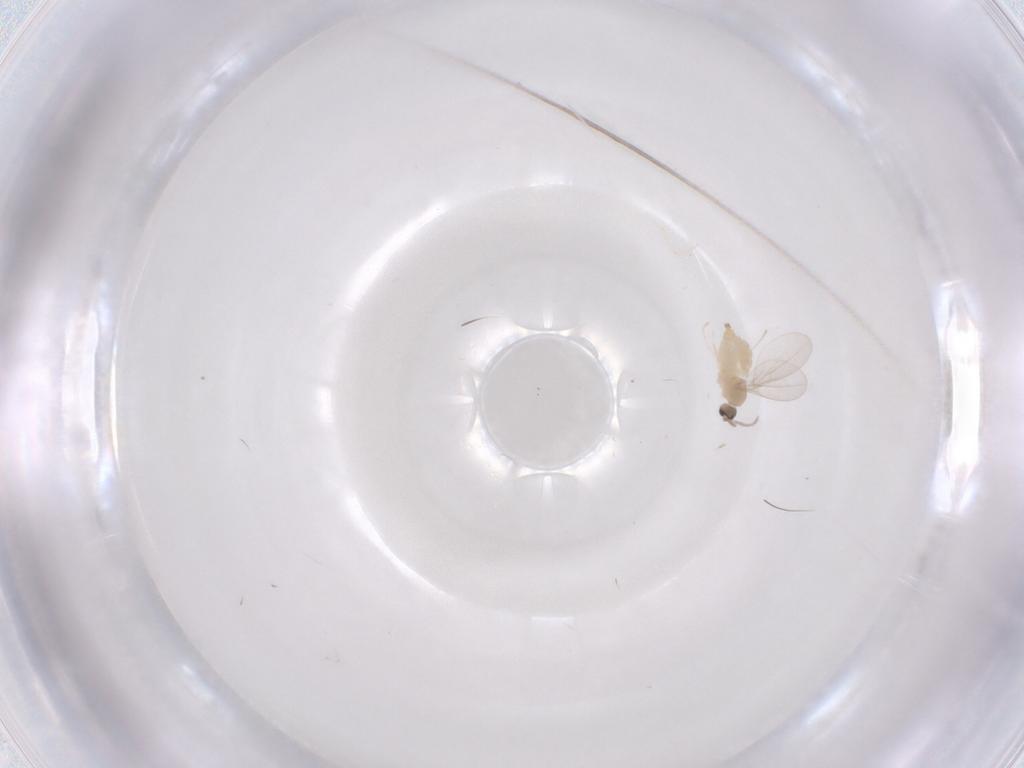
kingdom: Animalia
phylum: Arthropoda
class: Insecta
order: Diptera
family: Cecidomyiidae
